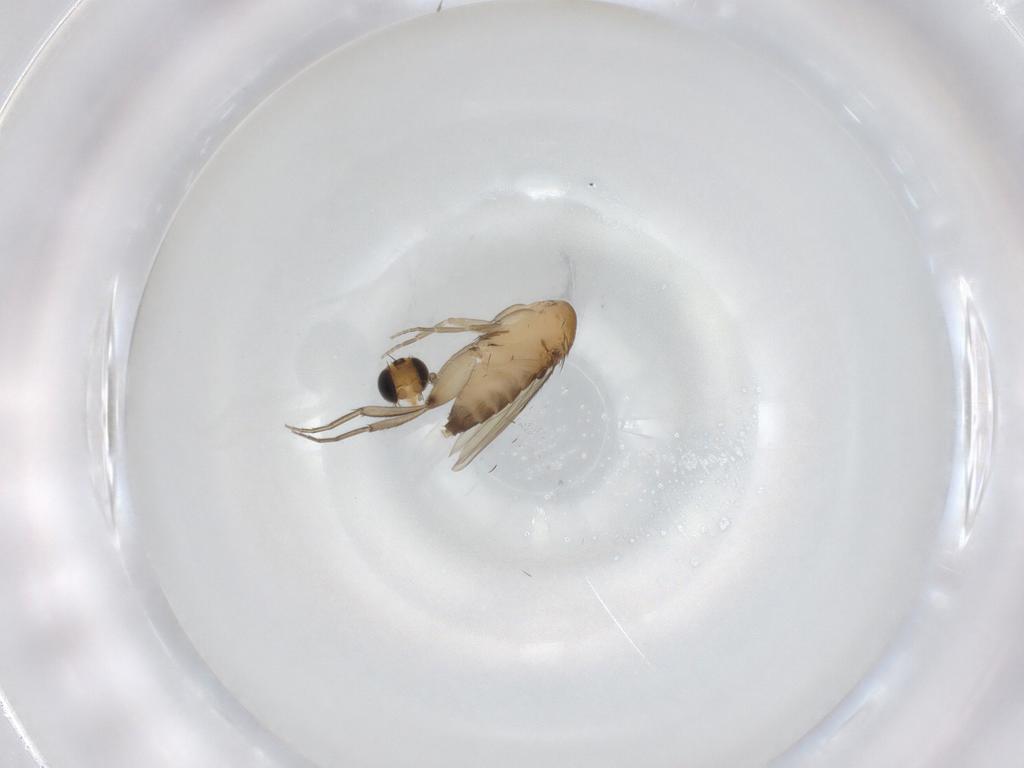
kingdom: Animalia
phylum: Arthropoda
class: Insecta
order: Diptera
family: Phoridae
